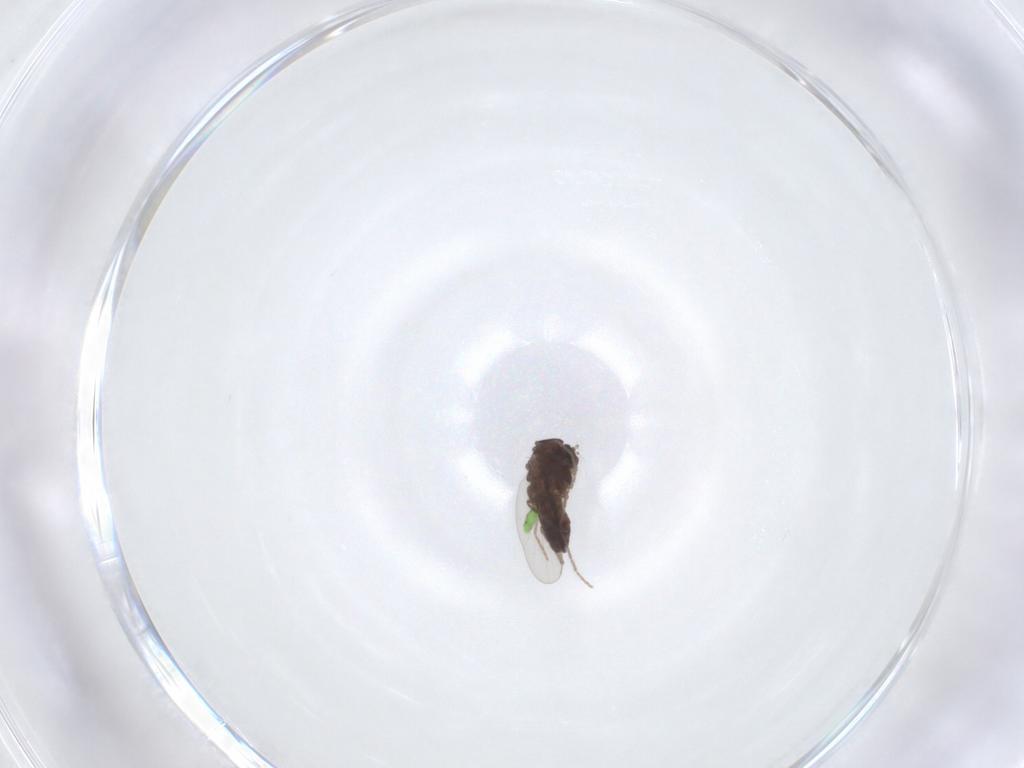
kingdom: Animalia
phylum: Arthropoda
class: Insecta
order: Diptera
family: Chironomidae
